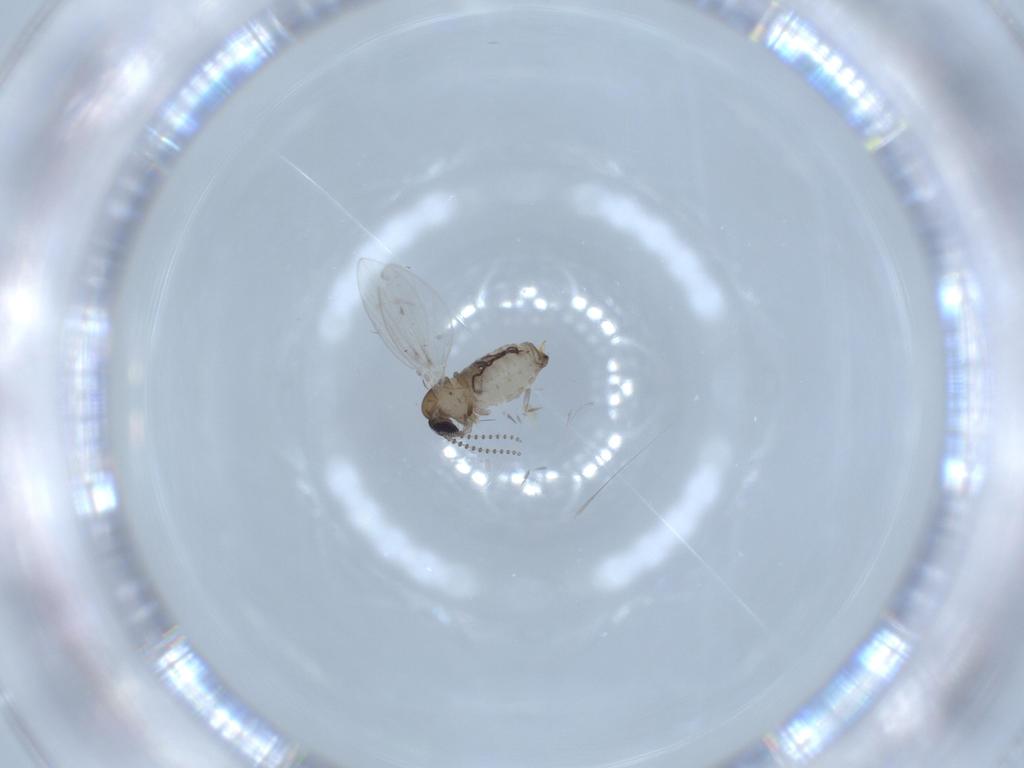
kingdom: Animalia
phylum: Arthropoda
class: Insecta
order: Diptera
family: Psychodidae
